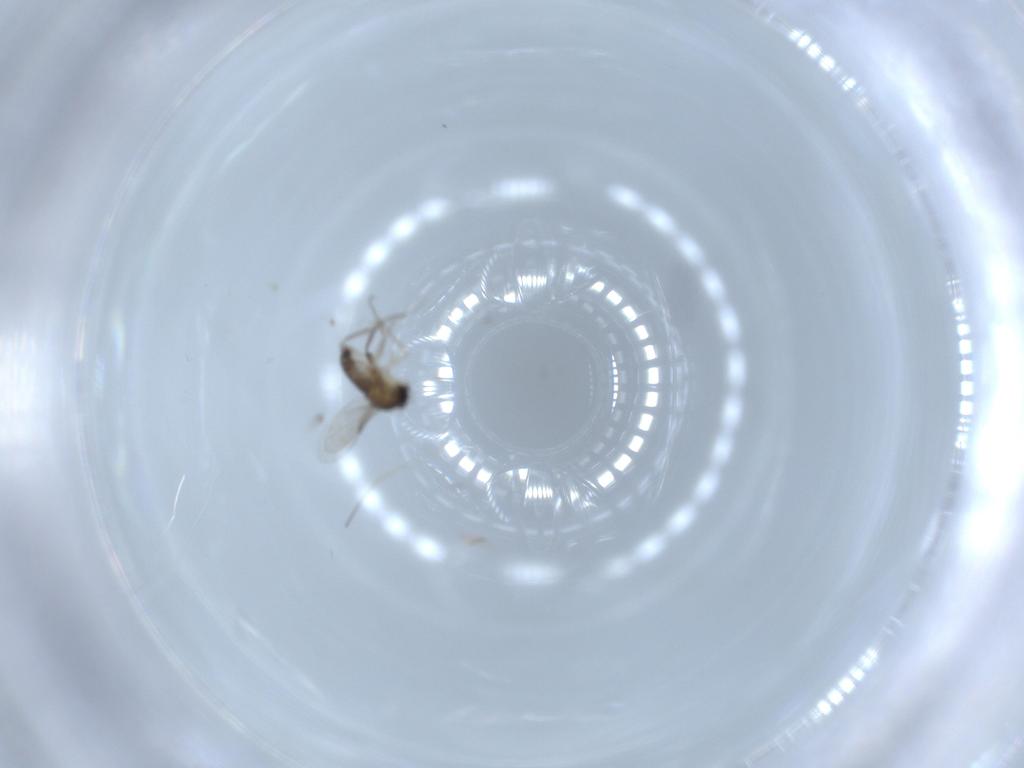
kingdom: Animalia
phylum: Arthropoda
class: Insecta
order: Diptera
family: Phoridae
